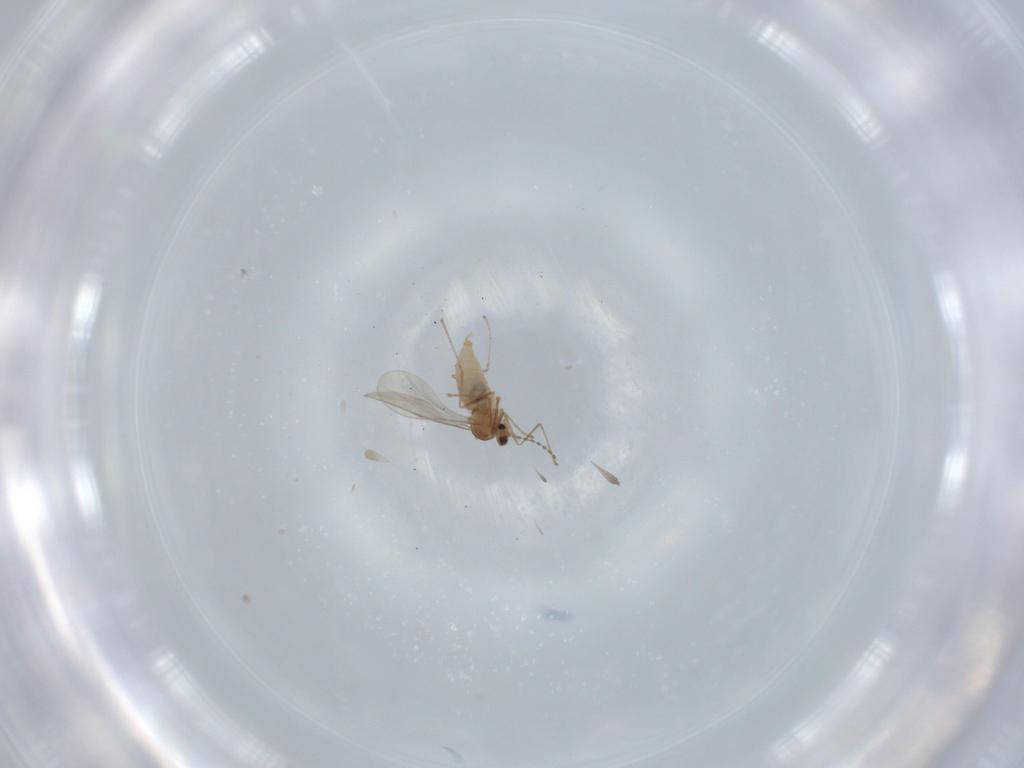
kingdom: Animalia
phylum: Arthropoda
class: Insecta
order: Diptera
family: Cecidomyiidae
